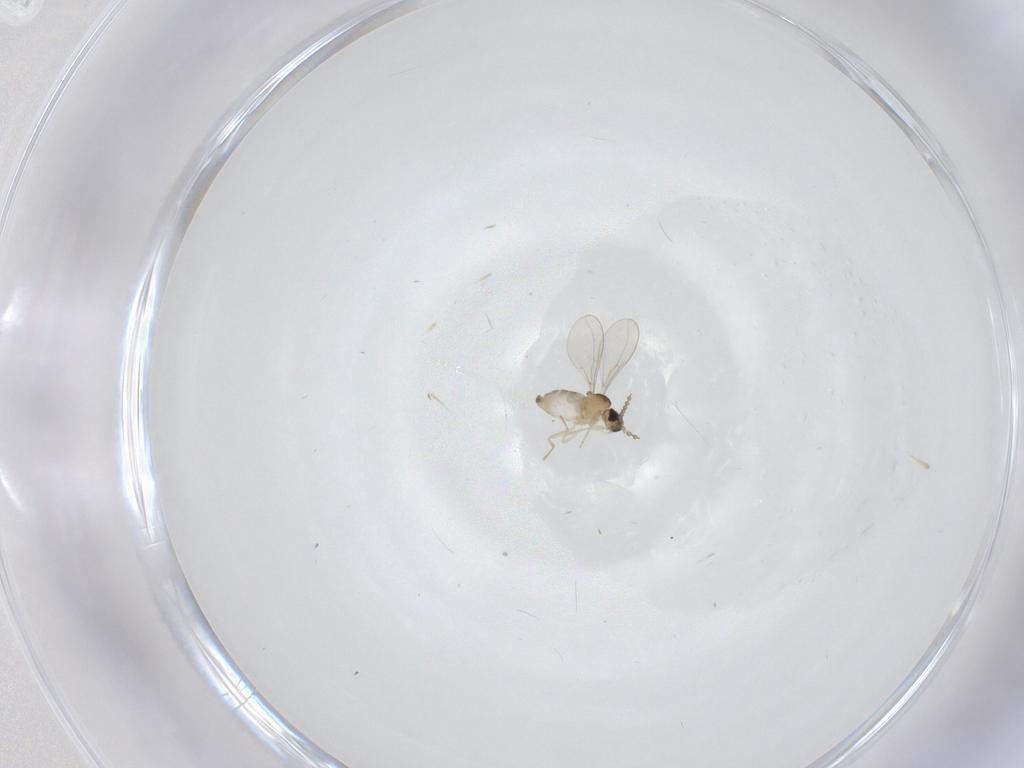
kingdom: Animalia
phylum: Arthropoda
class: Insecta
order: Diptera
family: Cecidomyiidae
